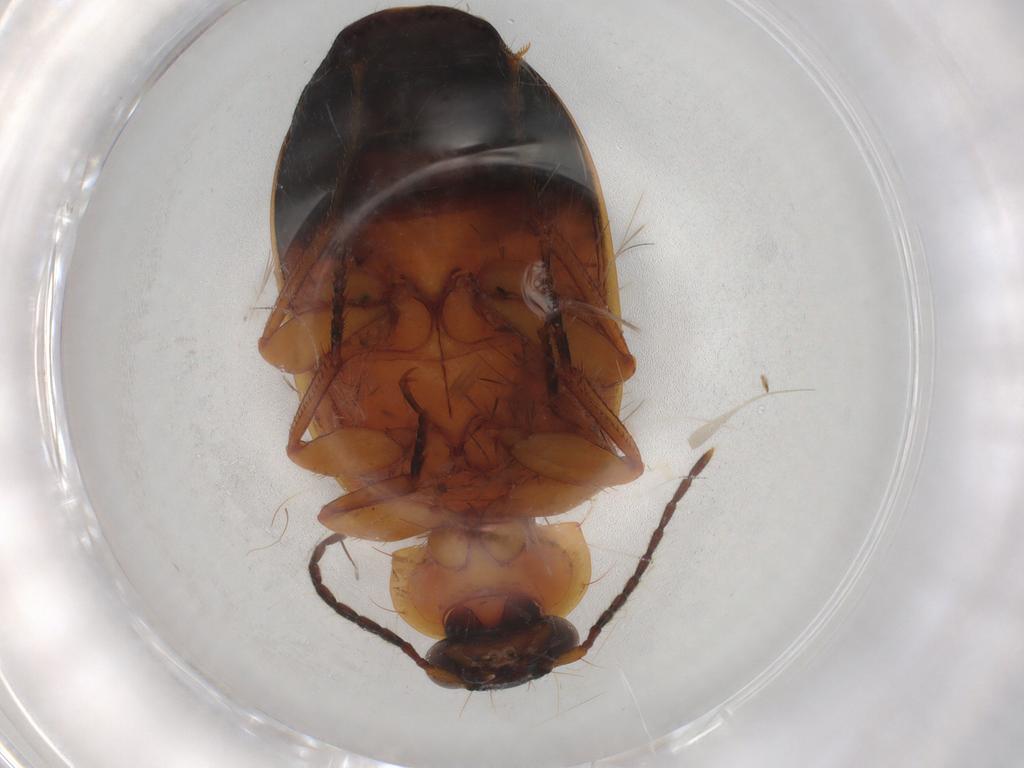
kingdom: Animalia
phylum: Arthropoda
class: Insecta
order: Coleoptera
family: Carabidae
